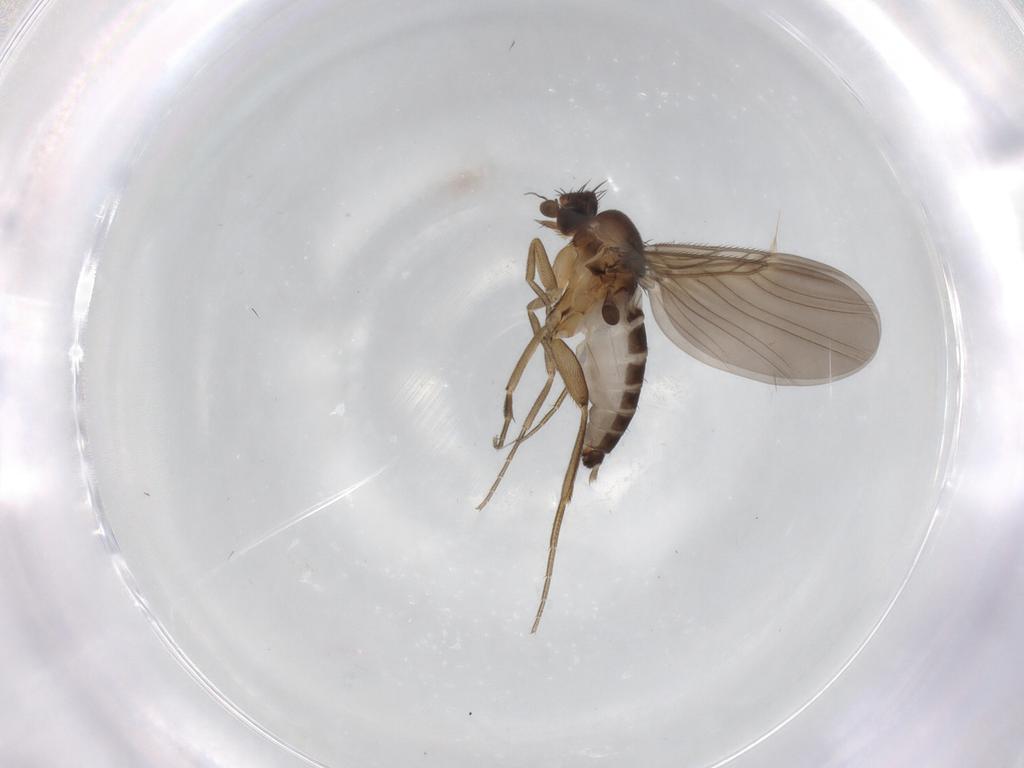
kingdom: Animalia
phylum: Arthropoda
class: Insecta
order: Diptera
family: Phoridae
